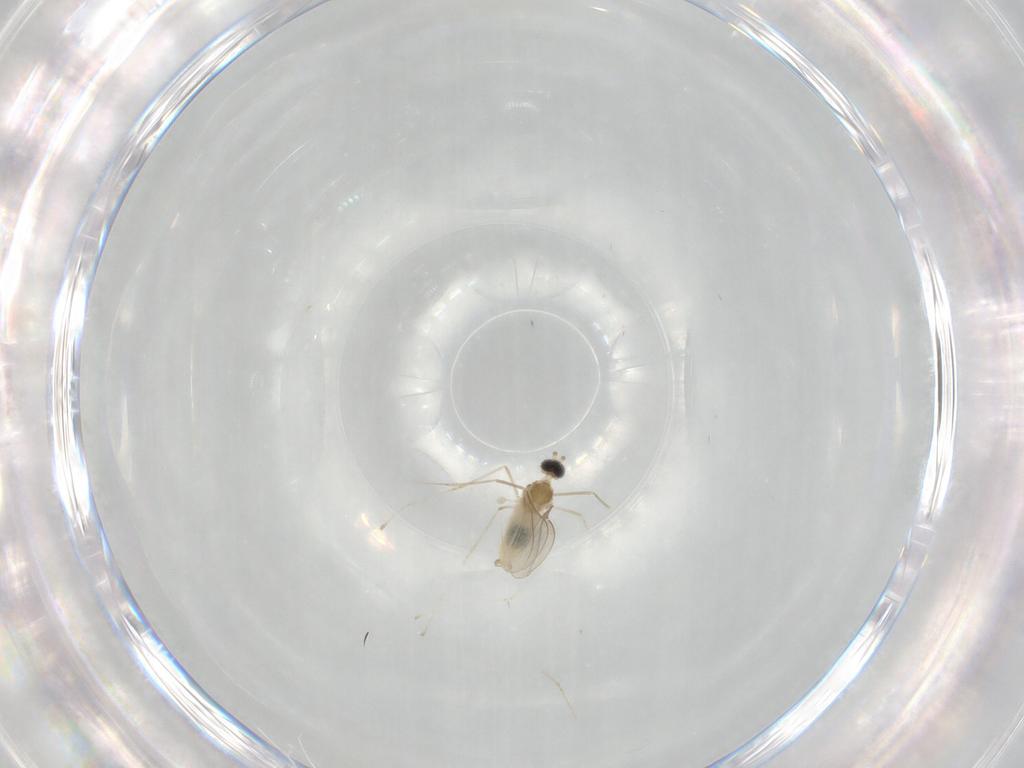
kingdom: Animalia
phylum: Arthropoda
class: Insecta
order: Diptera
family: Cecidomyiidae
